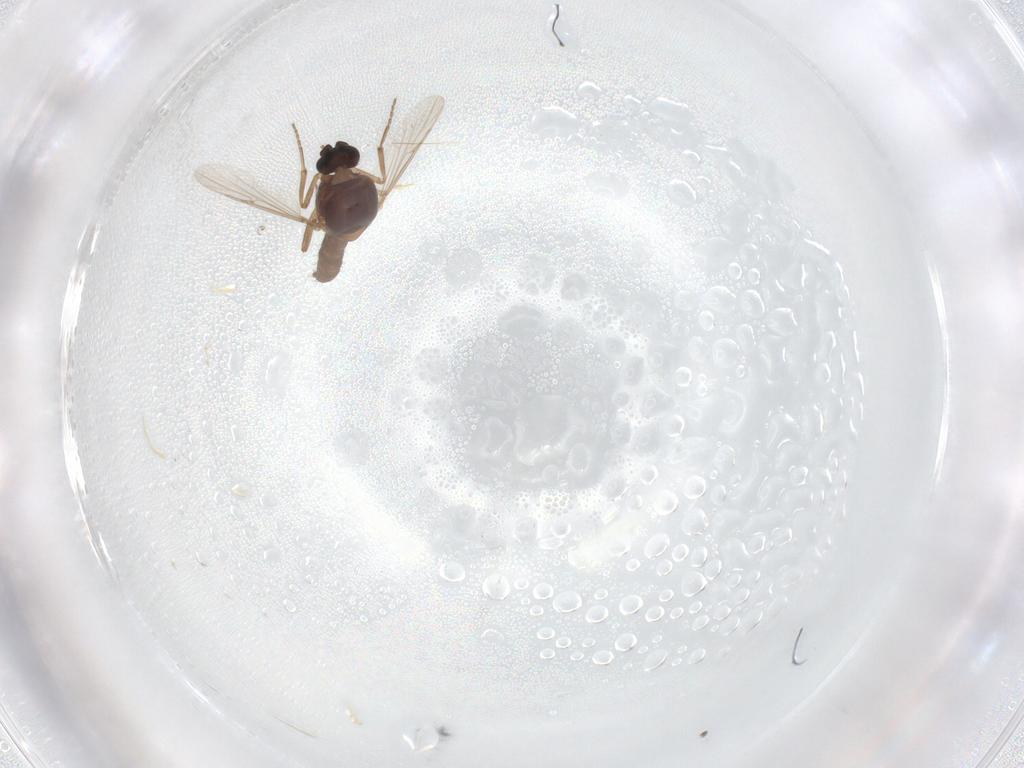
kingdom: Animalia
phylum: Arthropoda
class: Insecta
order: Diptera
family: Ceratopogonidae
